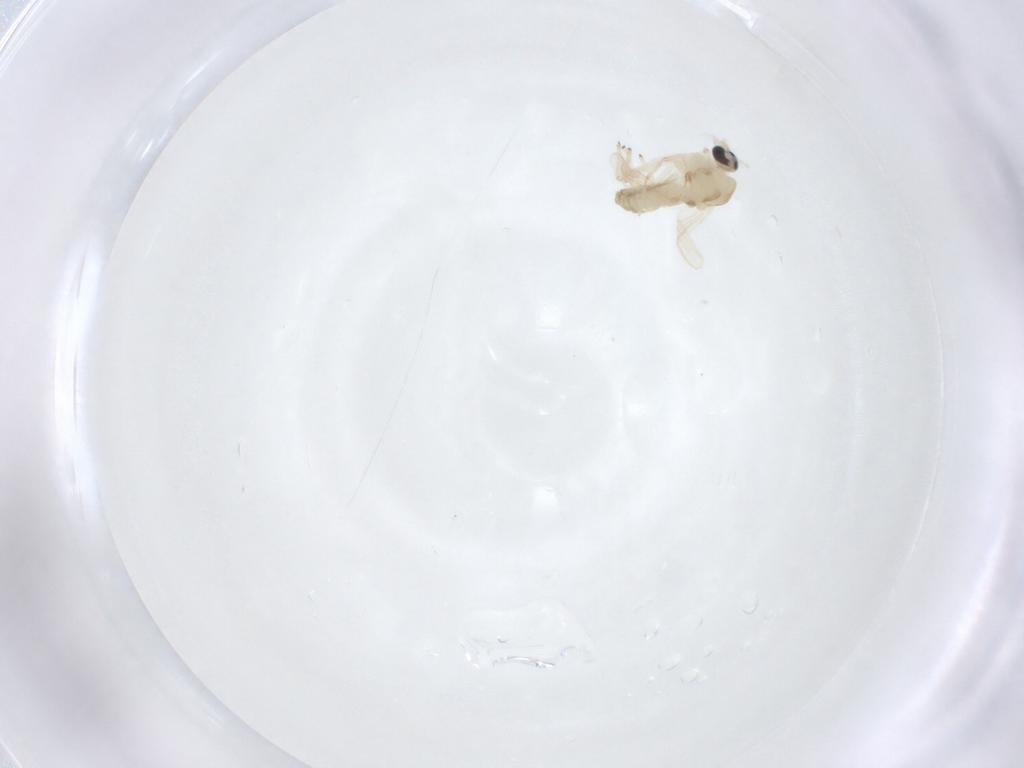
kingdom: Animalia
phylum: Arthropoda
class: Insecta
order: Diptera
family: Chironomidae
